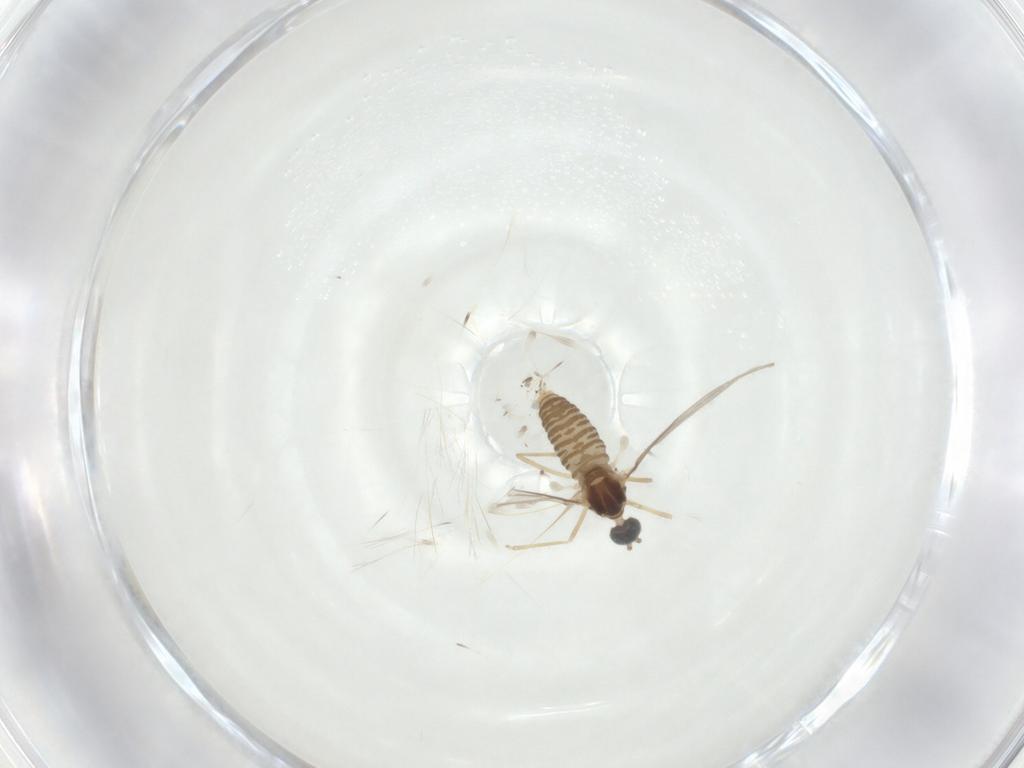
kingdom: Animalia
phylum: Arthropoda
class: Insecta
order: Diptera
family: Cecidomyiidae
